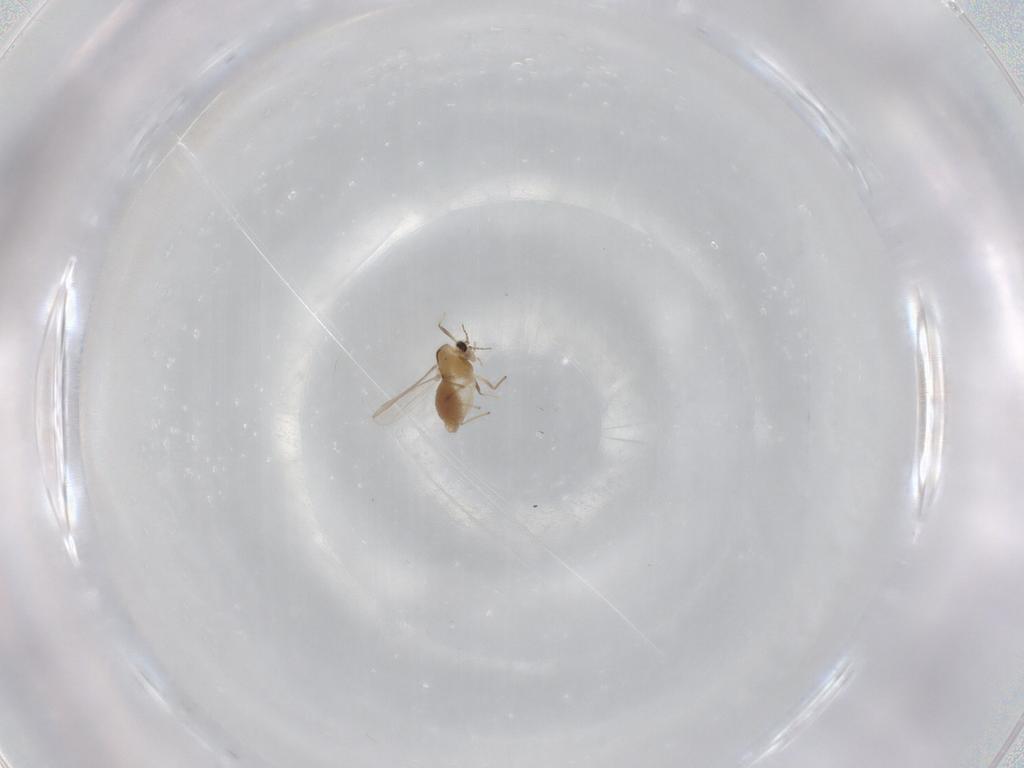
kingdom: Animalia
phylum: Arthropoda
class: Insecta
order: Diptera
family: Chironomidae
